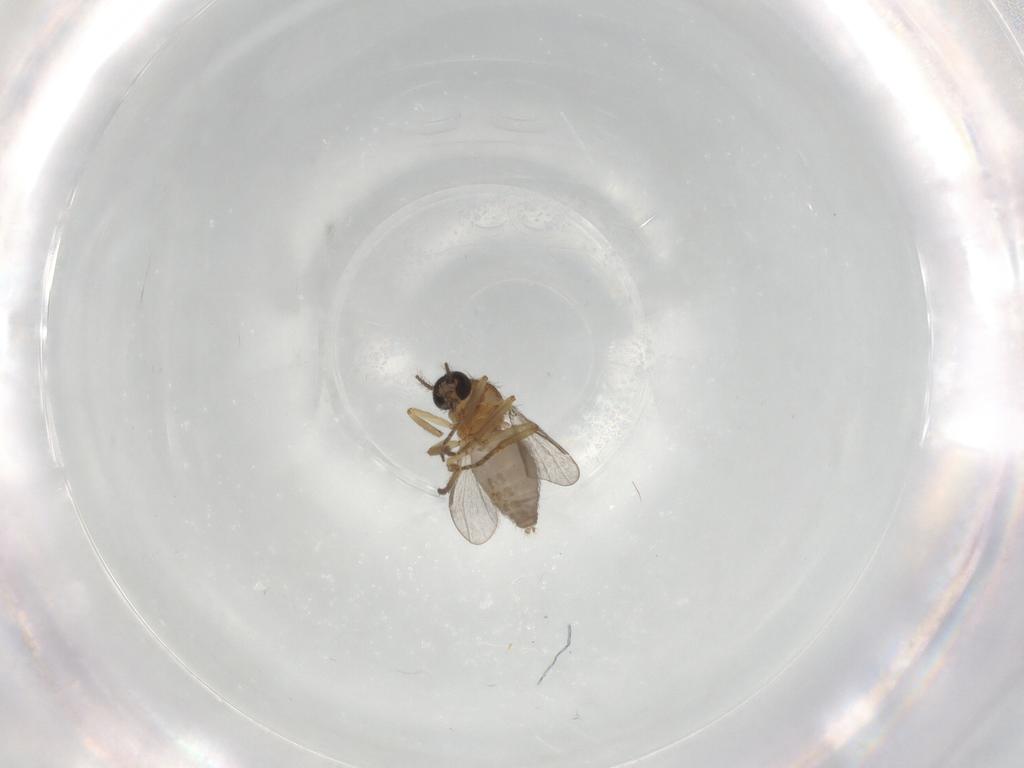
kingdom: Animalia
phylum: Arthropoda
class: Insecta
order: Diptera
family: Ceratopogonidae
